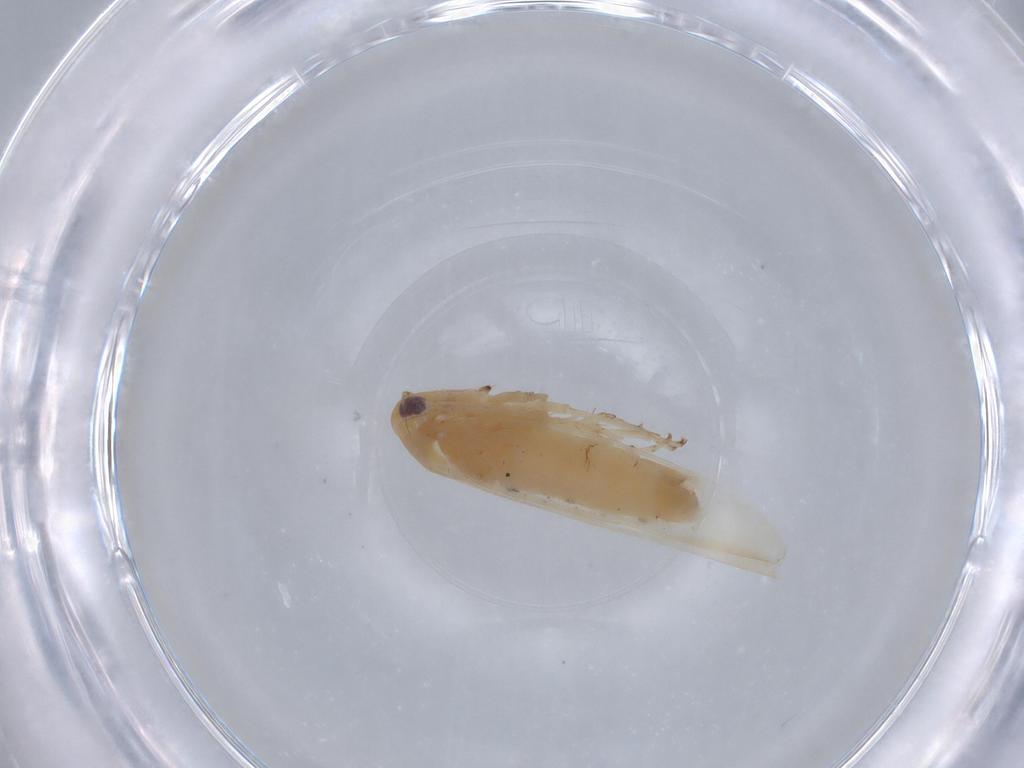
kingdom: Animalia
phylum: Arthropoda
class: Insecta
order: Hemiptera
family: Cicadellidae
